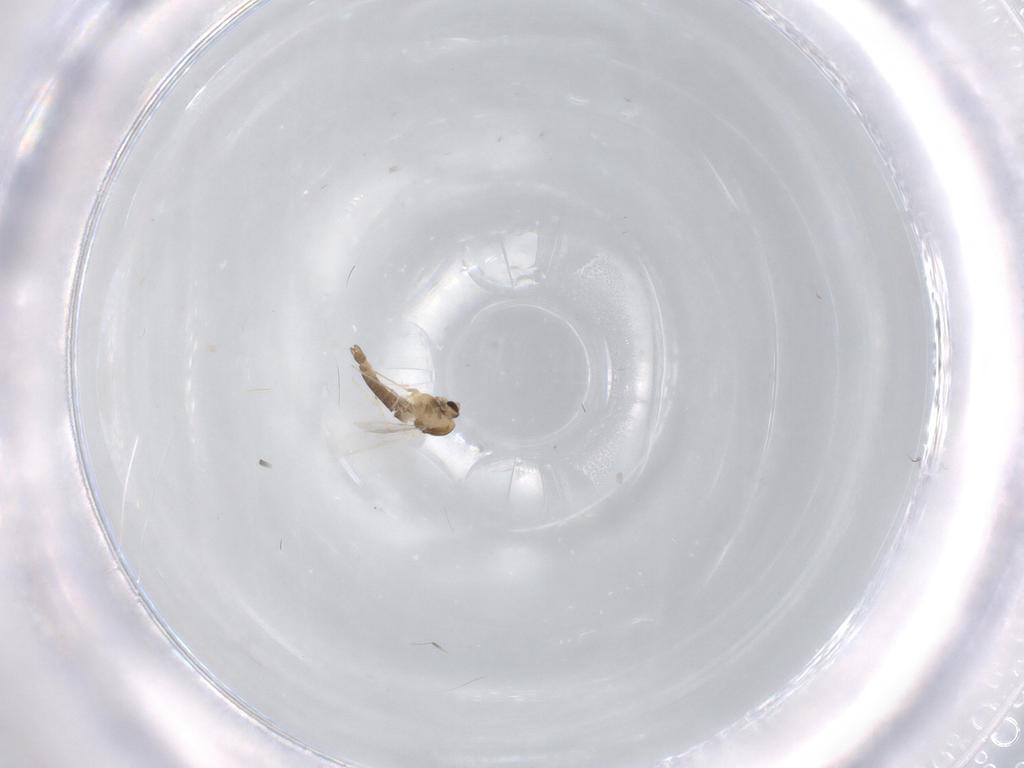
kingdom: Animalia
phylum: Arthropoda
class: Insecta
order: Diptera
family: Chironomidae
